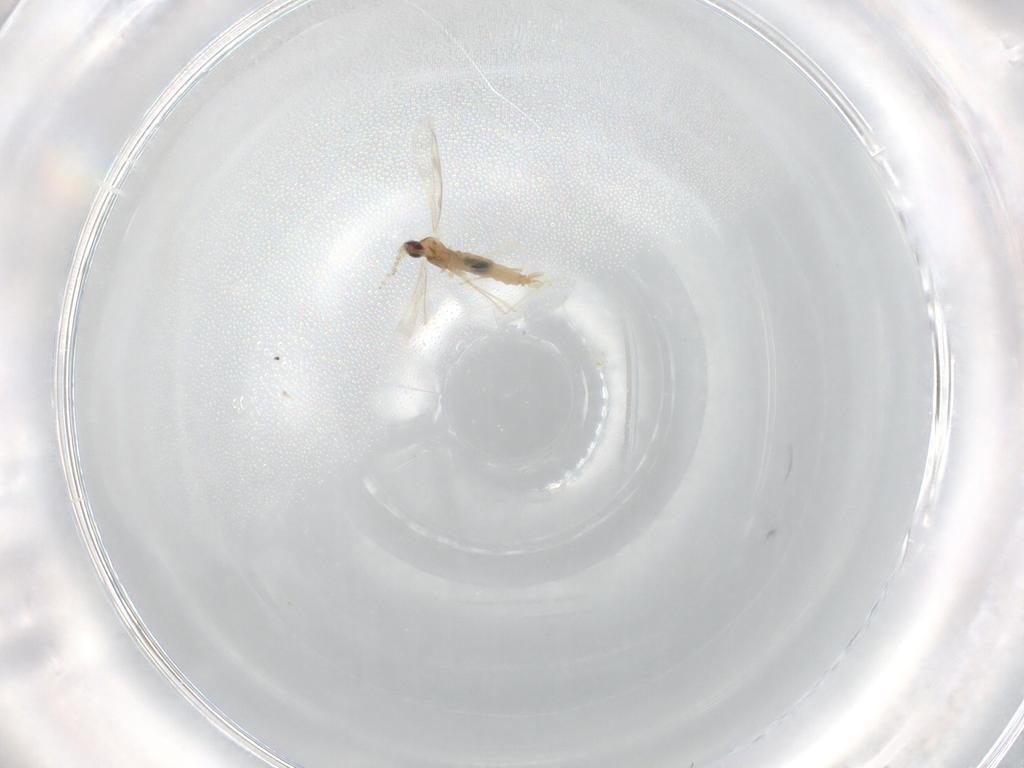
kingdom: Animalia
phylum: Arthropoda
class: Insecta
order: Diptera
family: Cecidomyiidae
